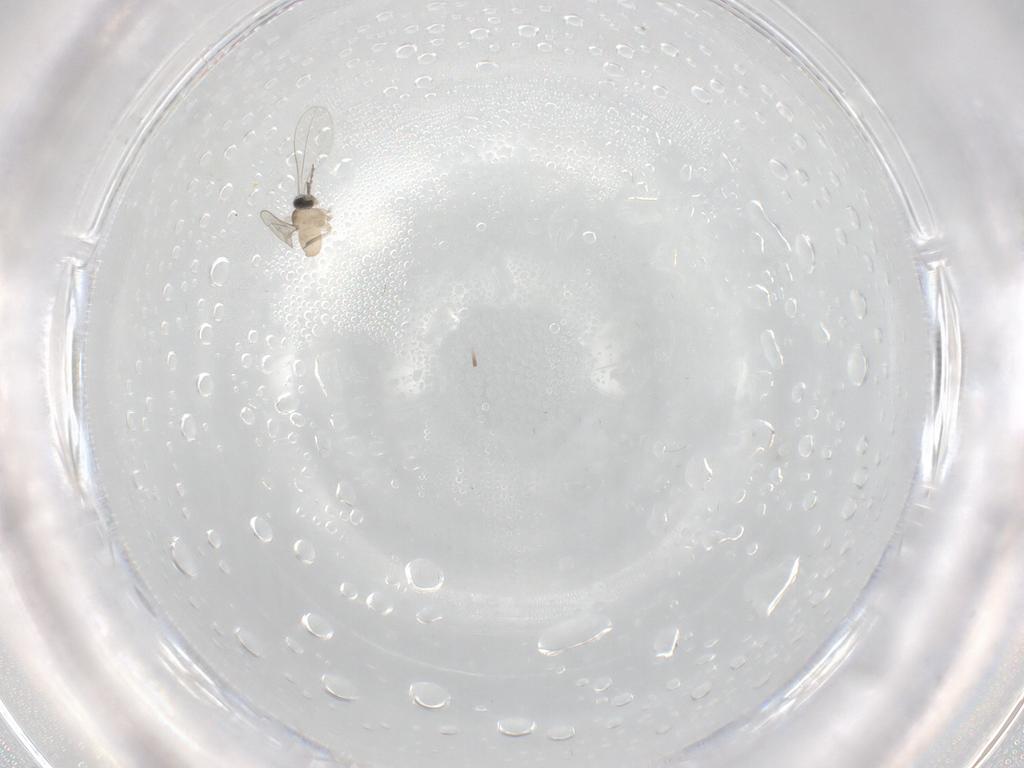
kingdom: Animalia
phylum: Arthropoda
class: Insecta
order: Diptera
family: Cecidomyiidae
